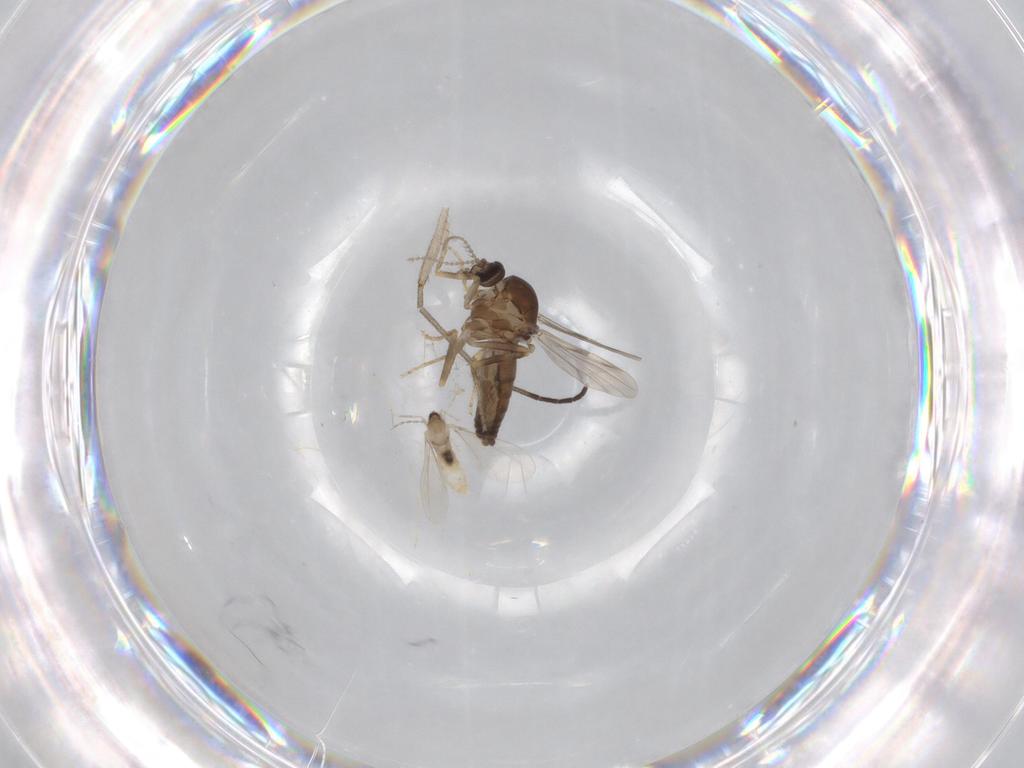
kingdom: Animalia
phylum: Arthropoda
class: Insecta
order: Diptera
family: Ceratopogonidae
